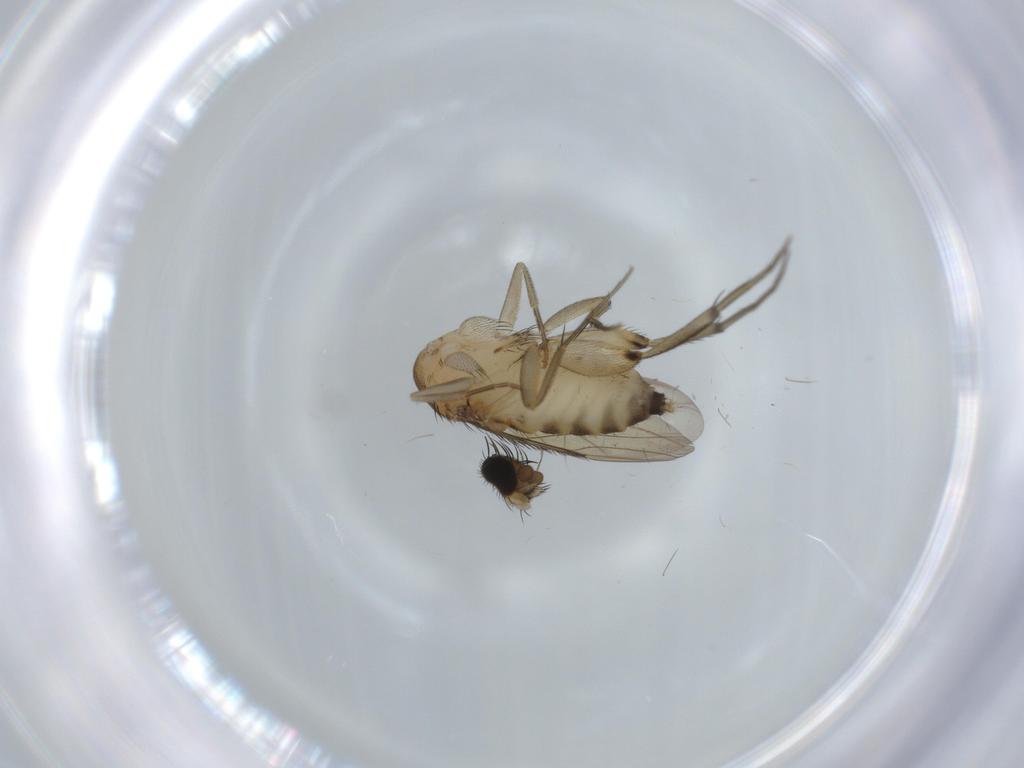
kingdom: Animalia
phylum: Arthropoda
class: Insecta
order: Diptera
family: Phoridae
